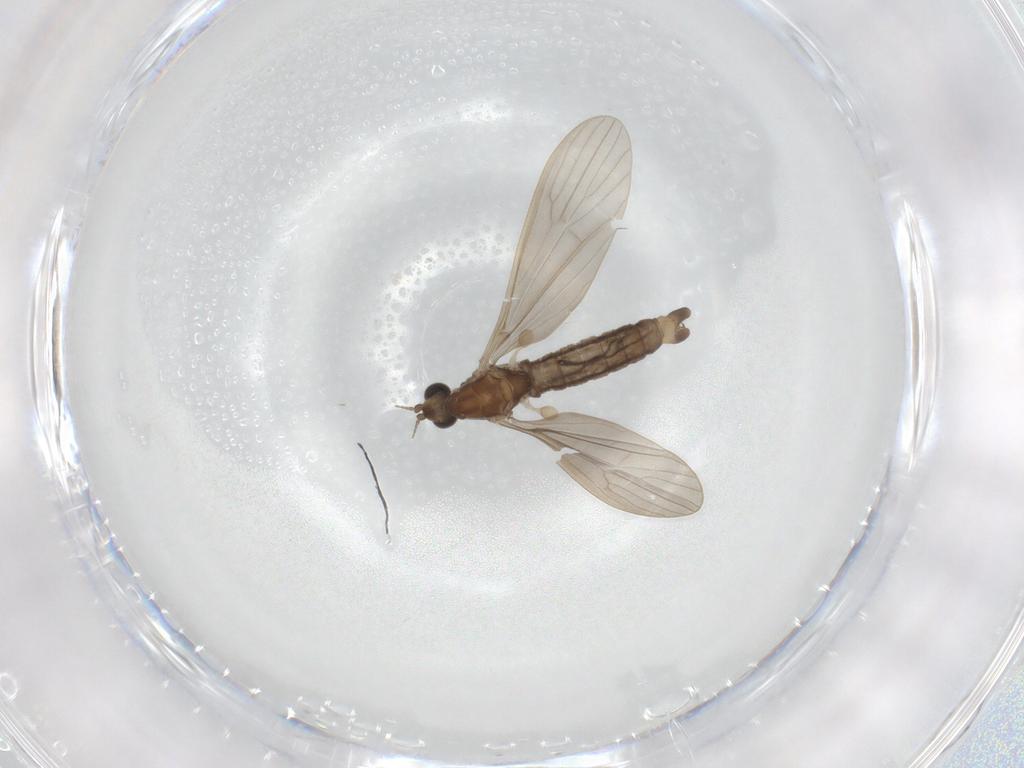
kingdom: Animalia
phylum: Arthropoda
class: Insecta
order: Diptera
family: Limoniidae
